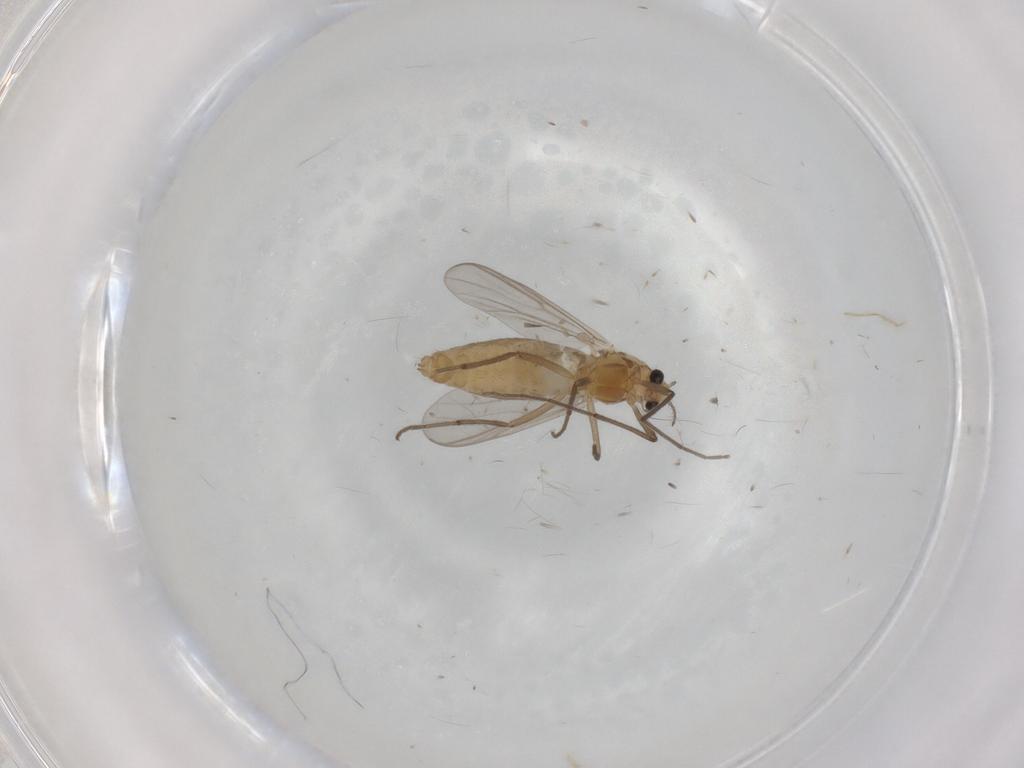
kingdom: Animalia
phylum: Arthropoda
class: Insecta
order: Diptera
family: Chironomidae
